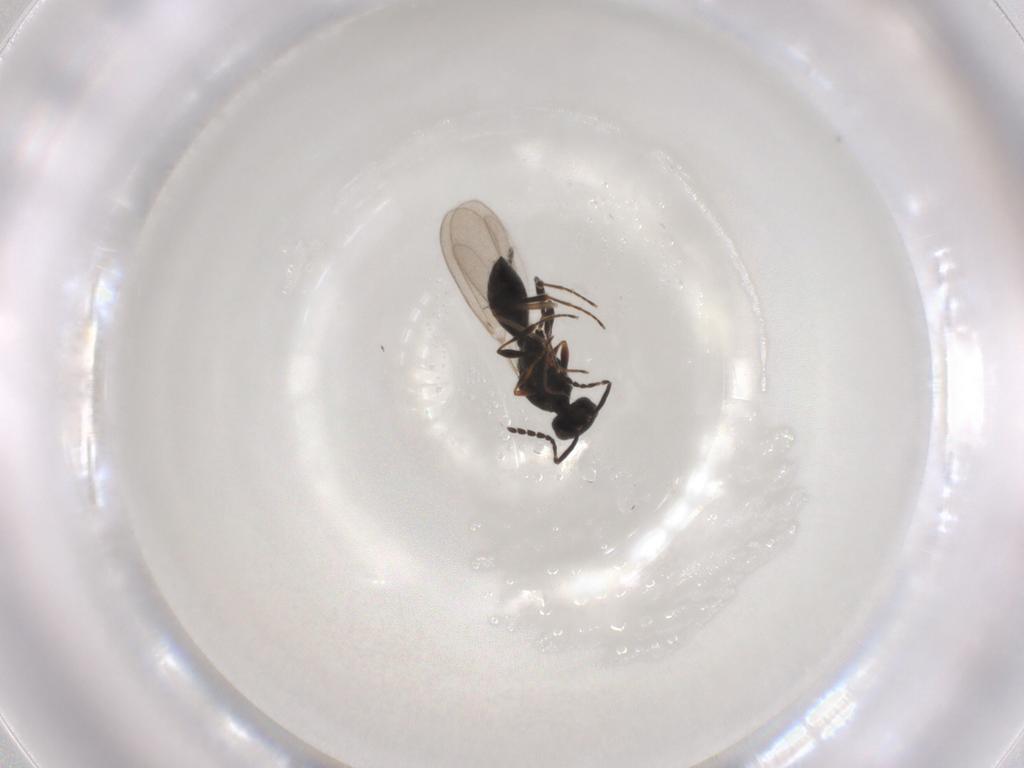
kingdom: Animalia
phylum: Arthropoda
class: Insecta
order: Hymenoptera
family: Platygastridae
